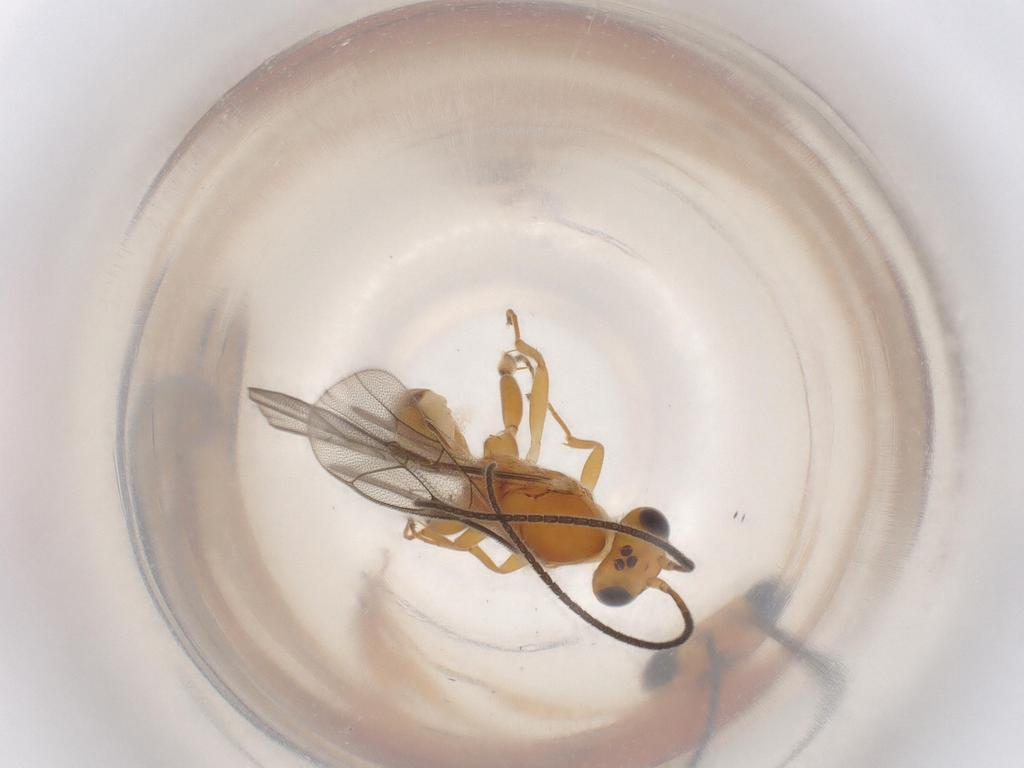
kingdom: Animalia
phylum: Arthropoda
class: Insecta
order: Hymenoptera
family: Ichneumonidae
